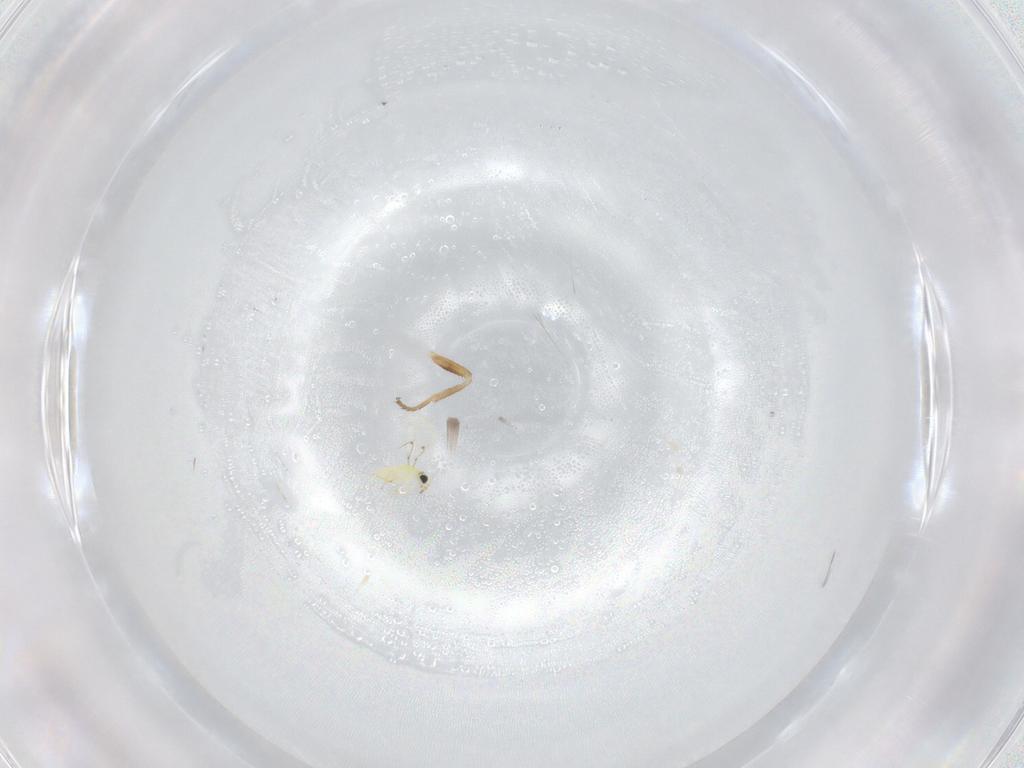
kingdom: Animalia
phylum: Arthropoda
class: Insecta
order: Hymenoptera
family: Trichogrammatidae
